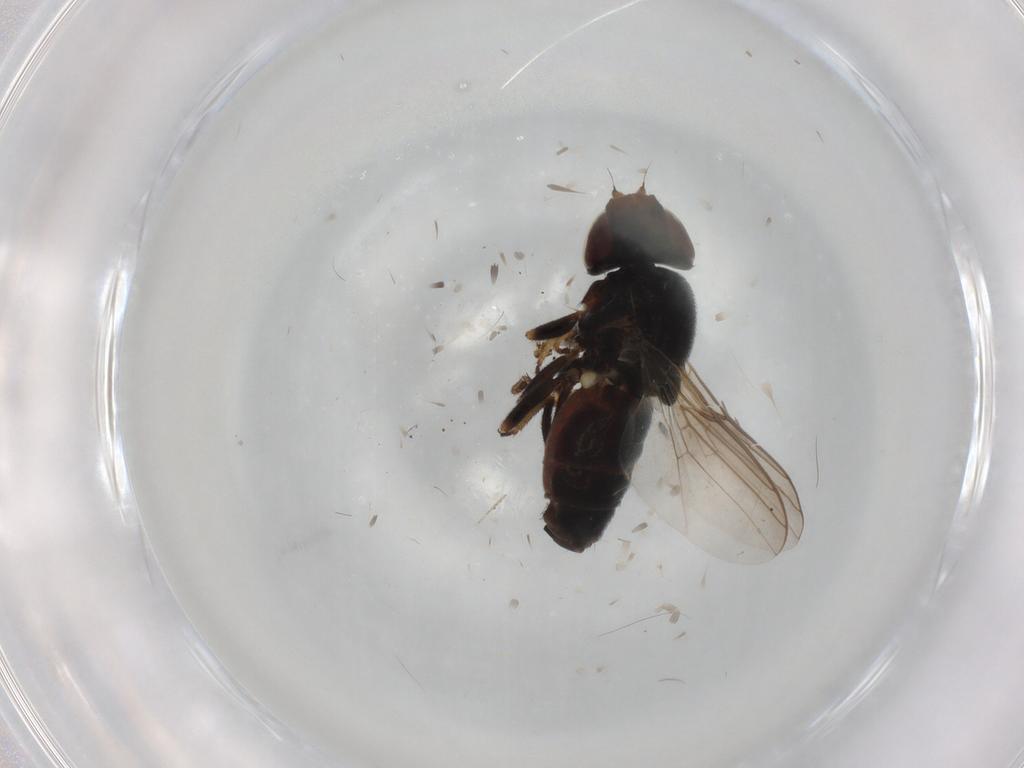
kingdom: Animalia
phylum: Arthropoda
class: Insecta
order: Diptera
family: Chloropidae
